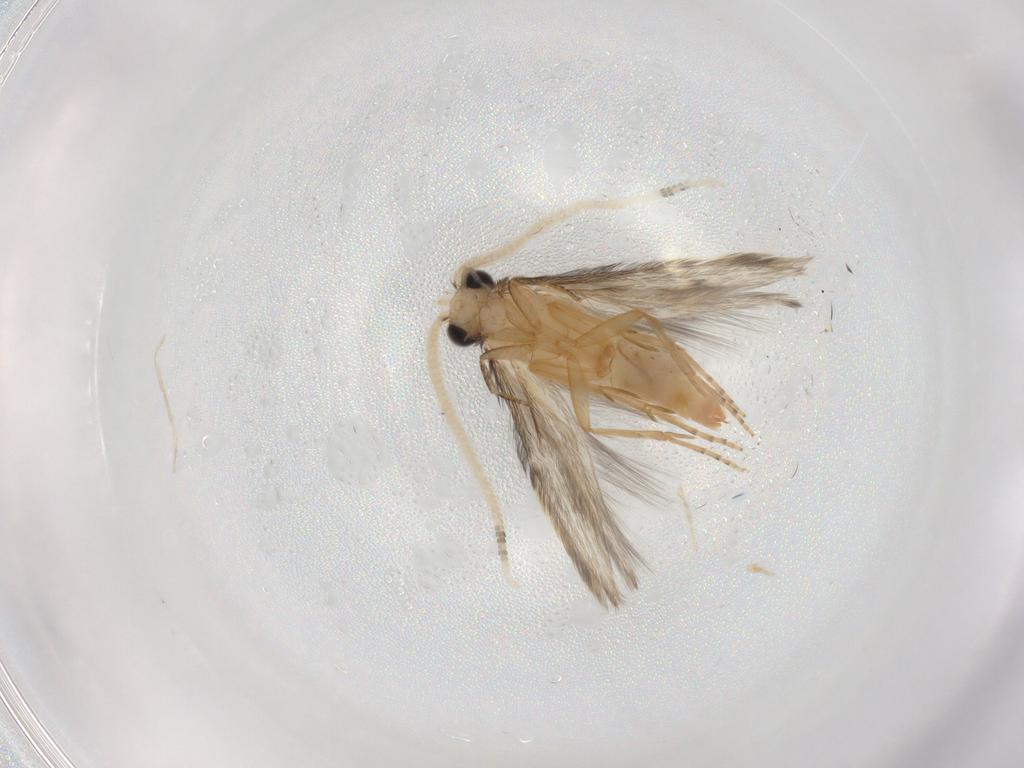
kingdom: Animalia
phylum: Arthropoda
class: Insecta
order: Trichoptera
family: Hydroptilidae
